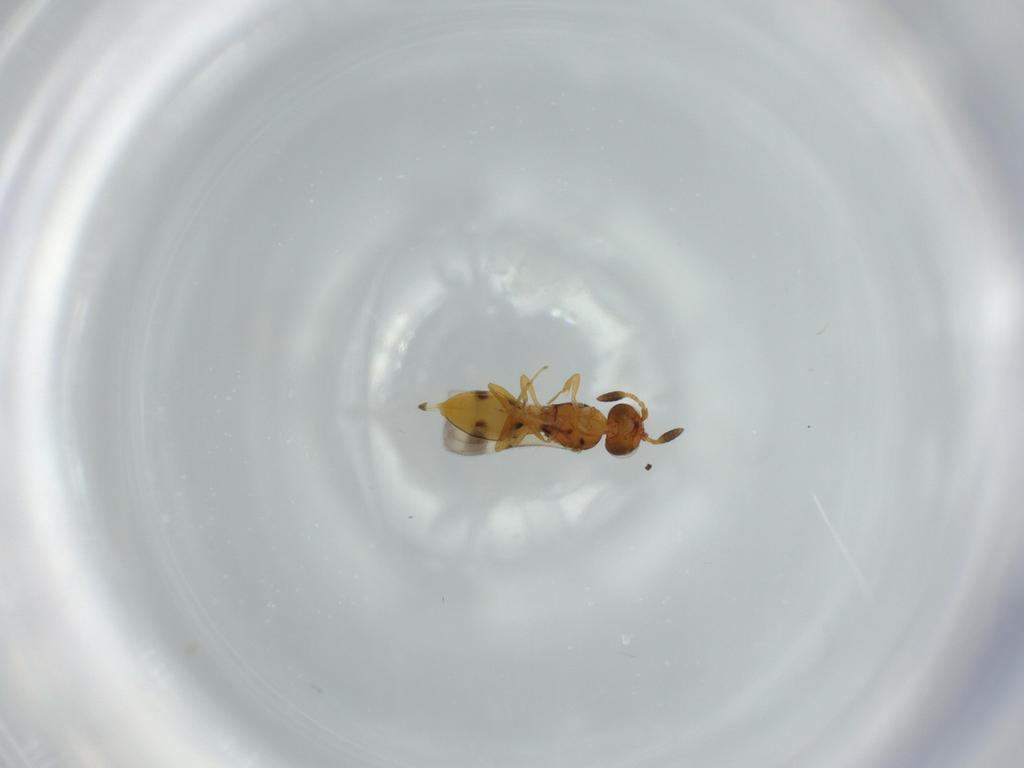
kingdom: Animalia
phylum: Arthropoda
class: Insecta
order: Hymenoptera
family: Scelionidae
